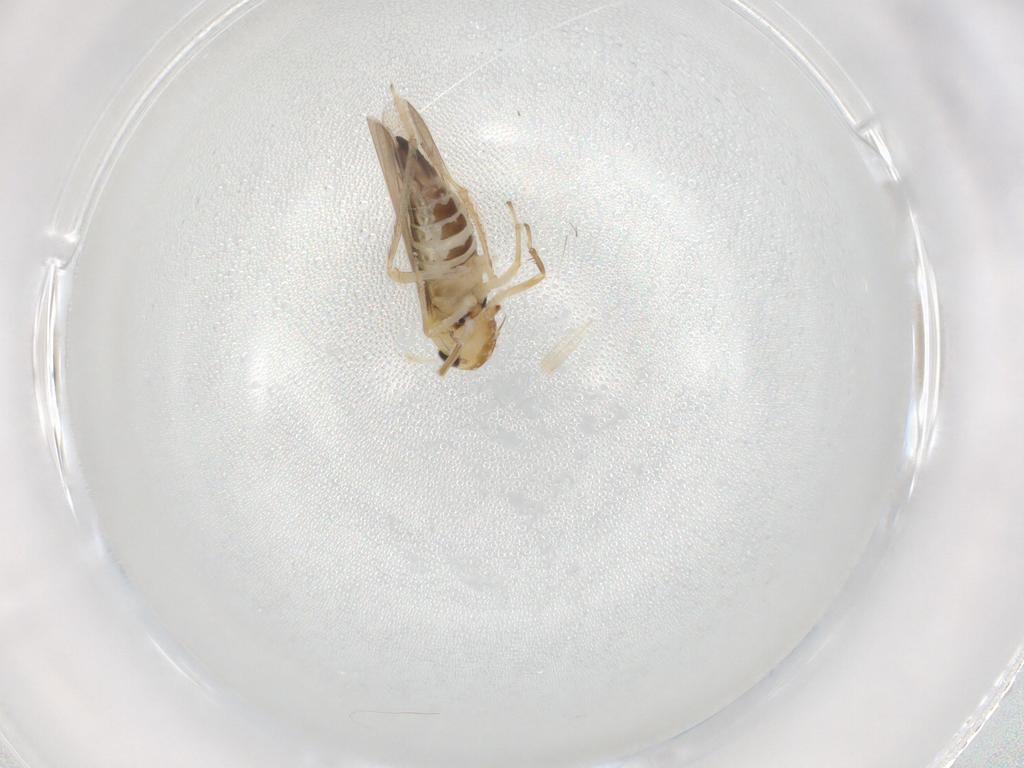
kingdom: Animalia
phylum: Arthropoda
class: Insecta
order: Hemiptera
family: Cicadellidae
